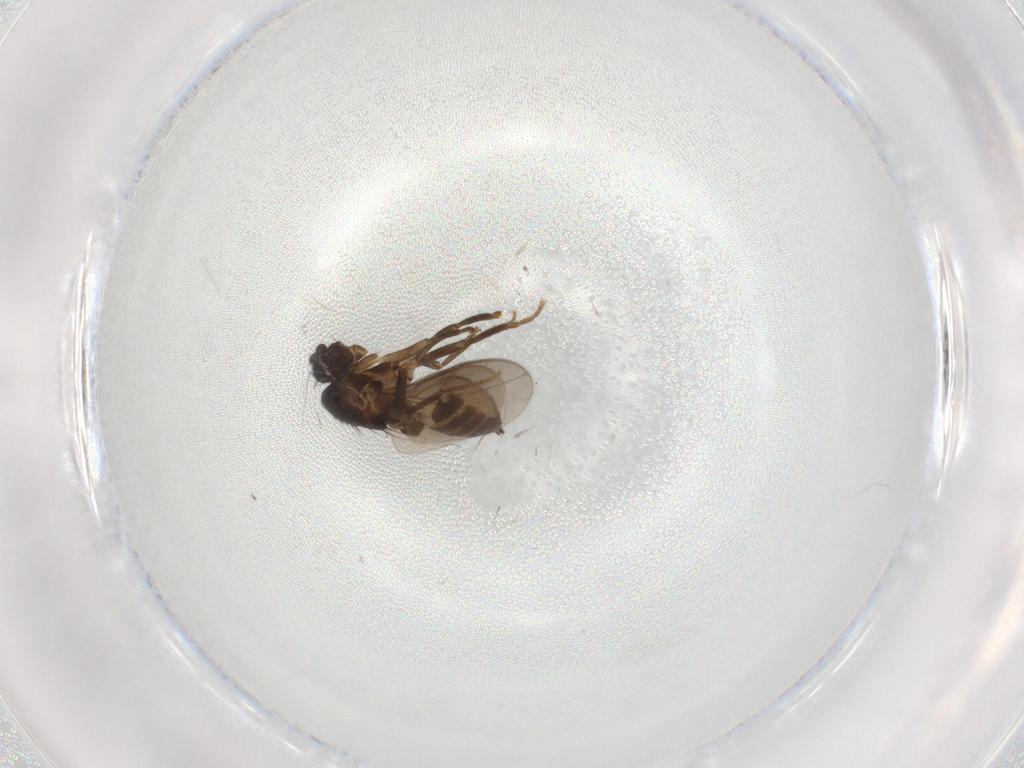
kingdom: Animalia
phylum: Arthropoda
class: Insecta
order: Diptera
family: Sphaeroceridae
